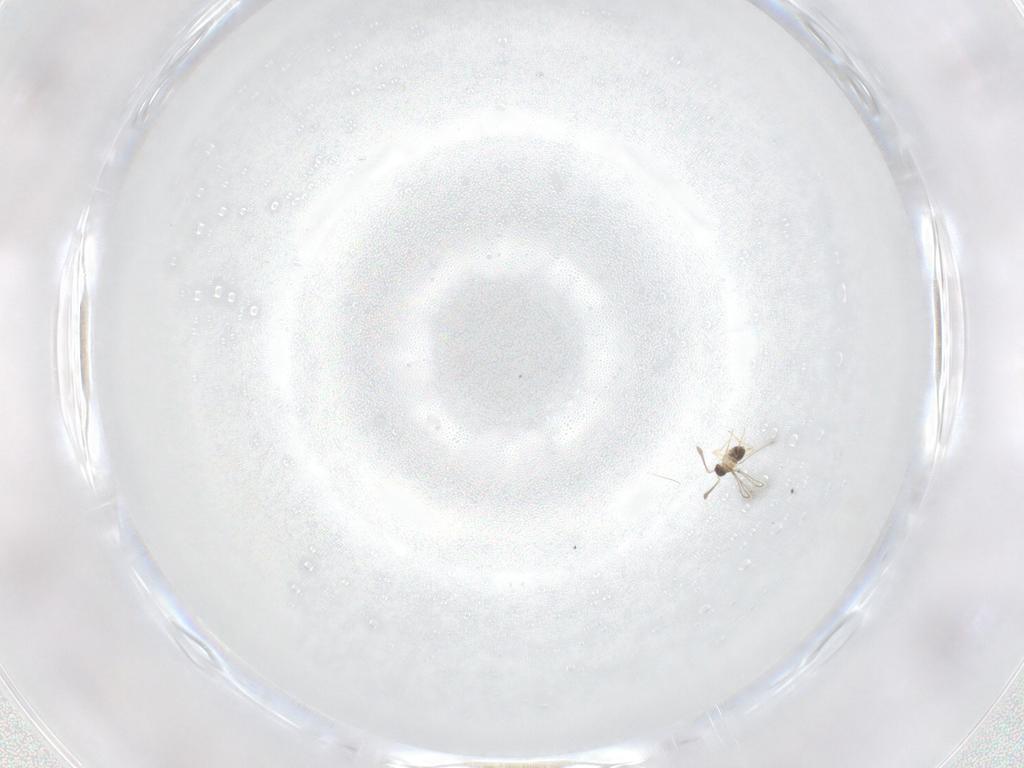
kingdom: Animalia
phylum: Arthropoda
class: Insecta
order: Hymenoptera
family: Mymaridae
